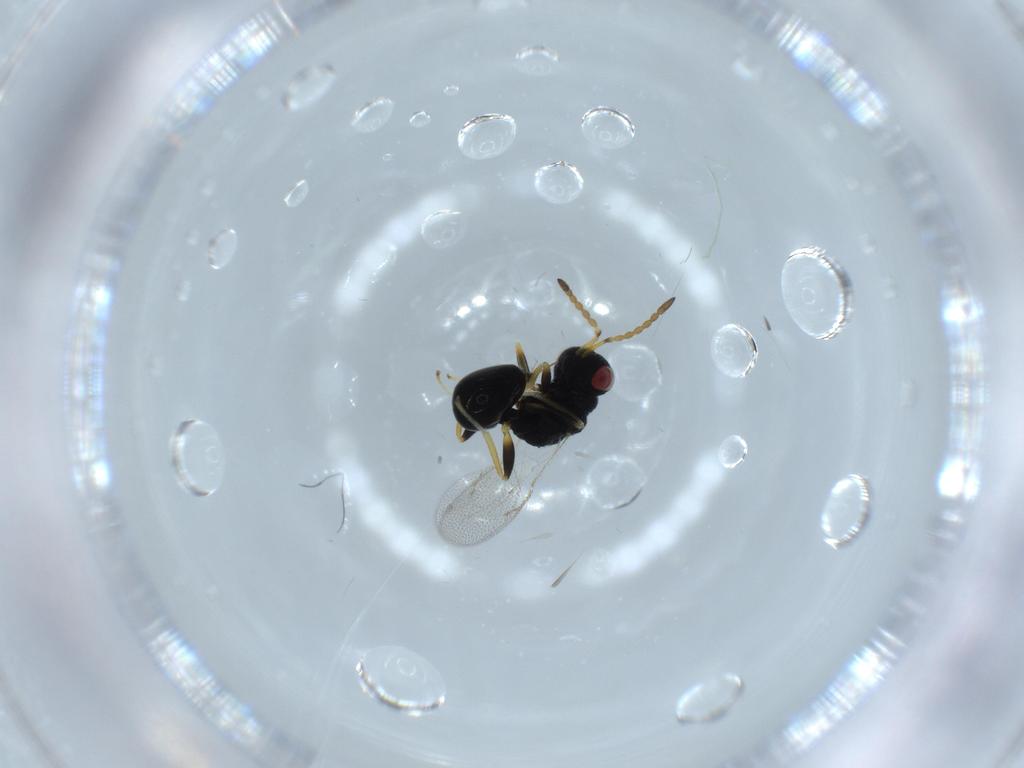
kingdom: Animalia
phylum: Arthropoda
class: Insecta
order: Hymenoptera
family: Eurytomidae
